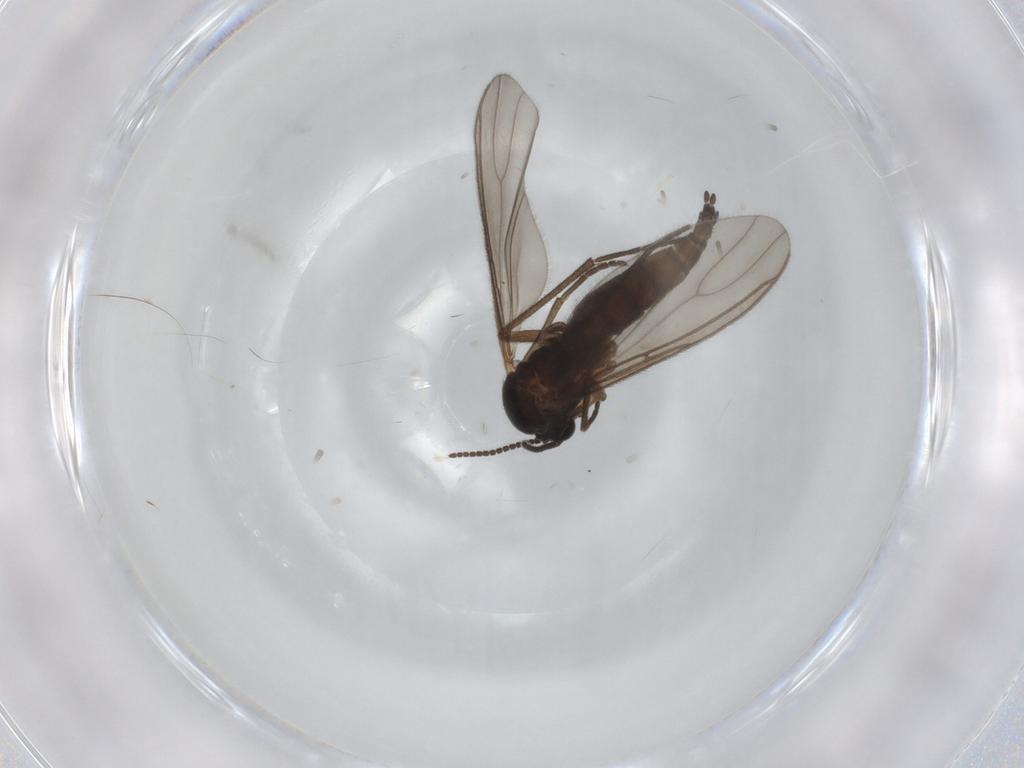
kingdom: Animalia
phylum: Arthropoda
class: Insecta
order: Diptera
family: Sciaridae
